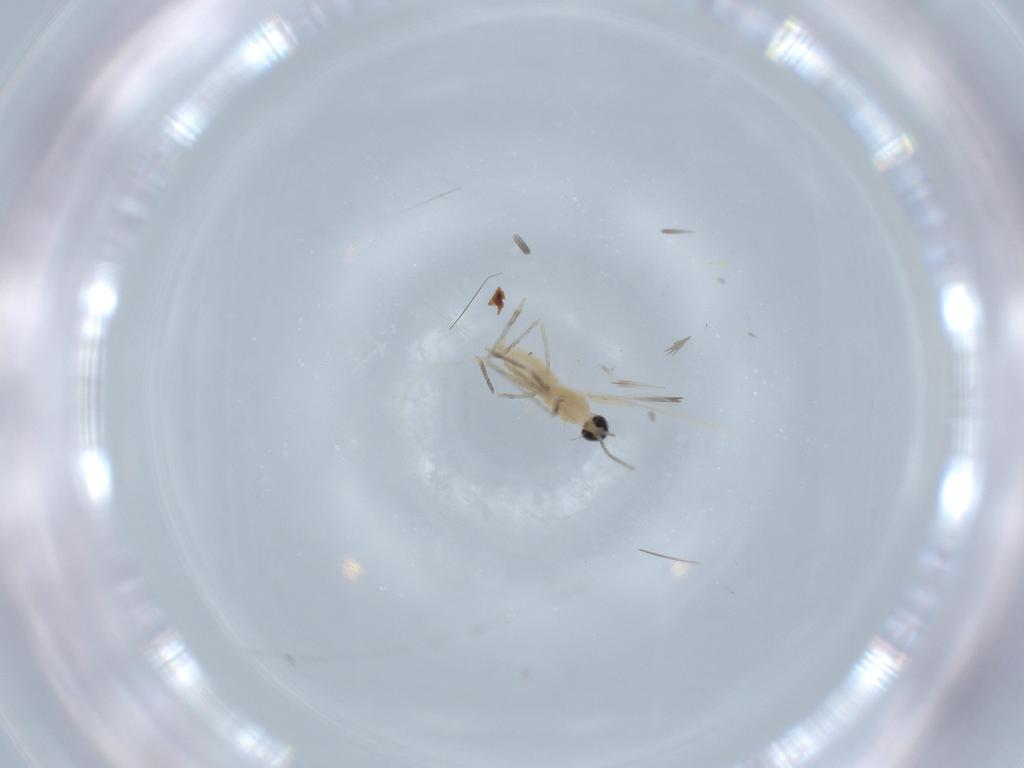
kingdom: Animalia
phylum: Arthropoda
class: Insecta
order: Diptera
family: Cecidomyiidae
